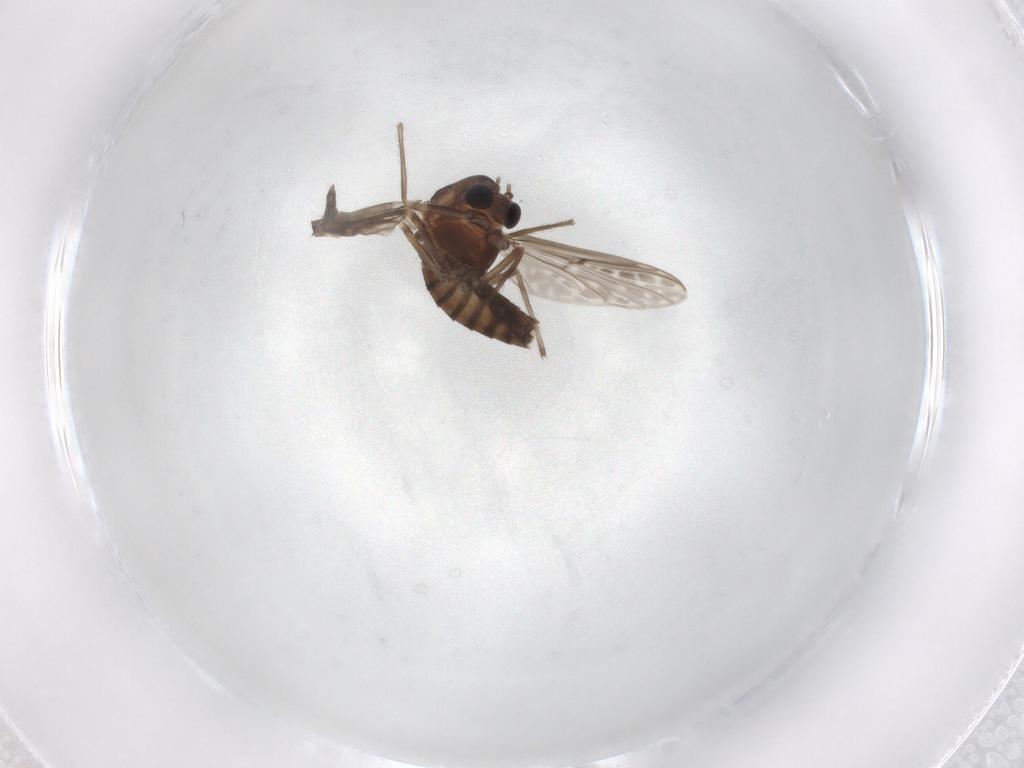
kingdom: Animalia
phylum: Arthropoda
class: Insecta
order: Diptera
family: Chironomidae
